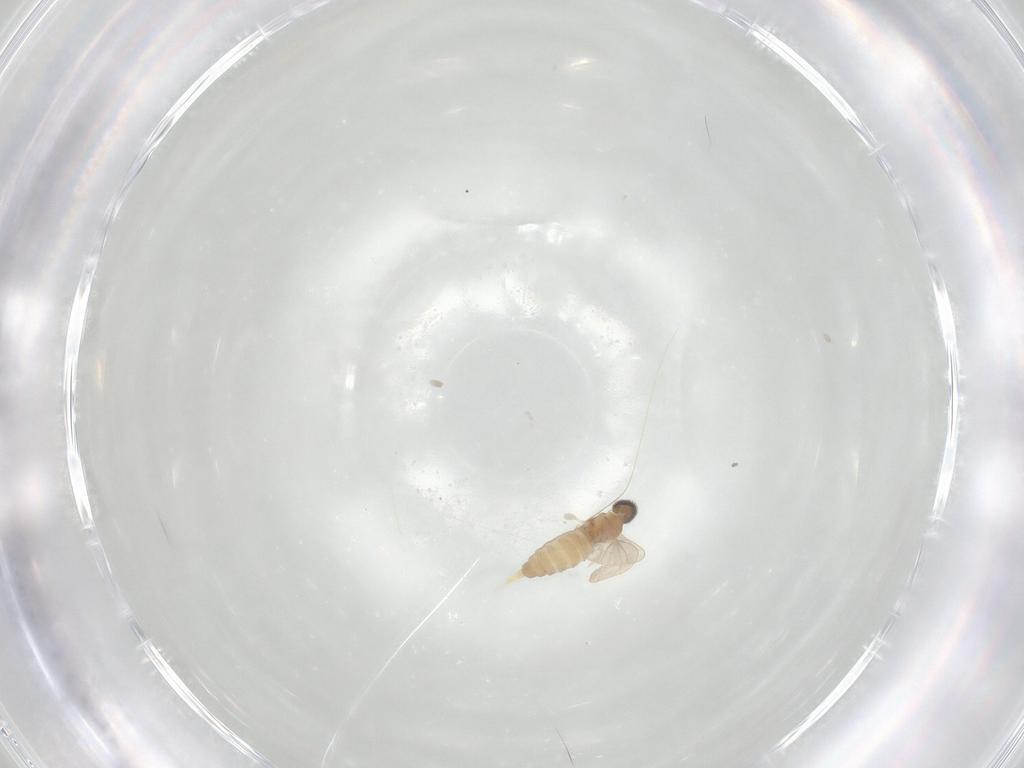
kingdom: Animalia
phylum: Arthropoda
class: Insecta
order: Diptera
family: Cecidomyiidae
